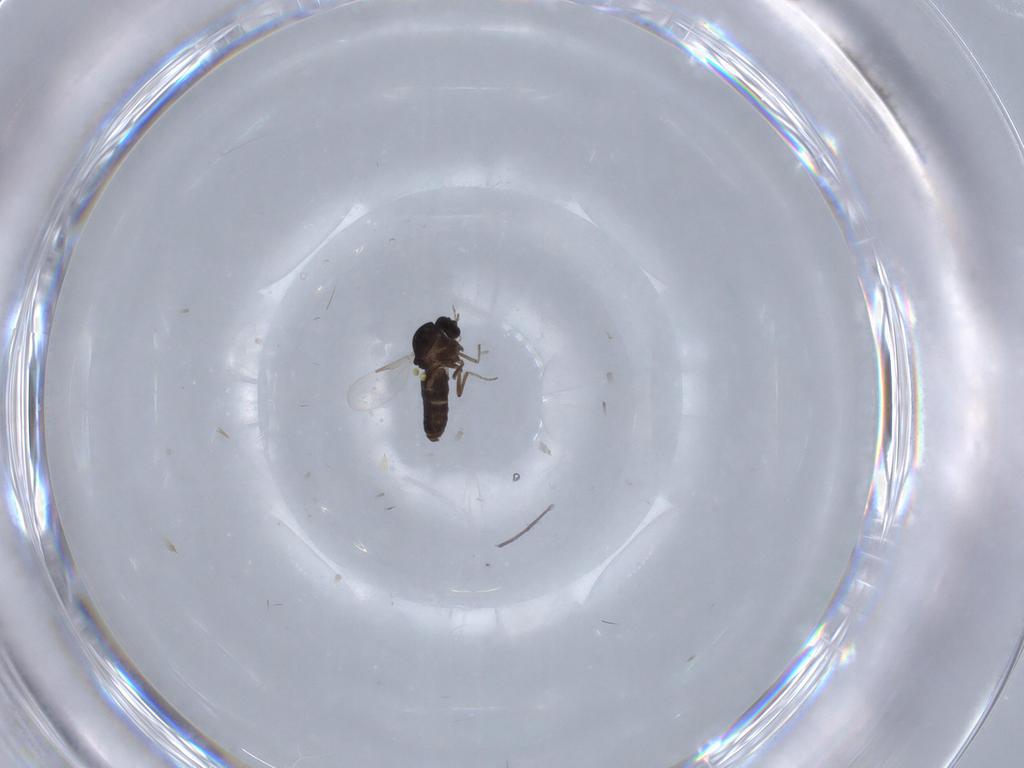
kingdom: Animalia
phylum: Arthropoda
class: Insecta
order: Diptera
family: Ceratopogonidae
